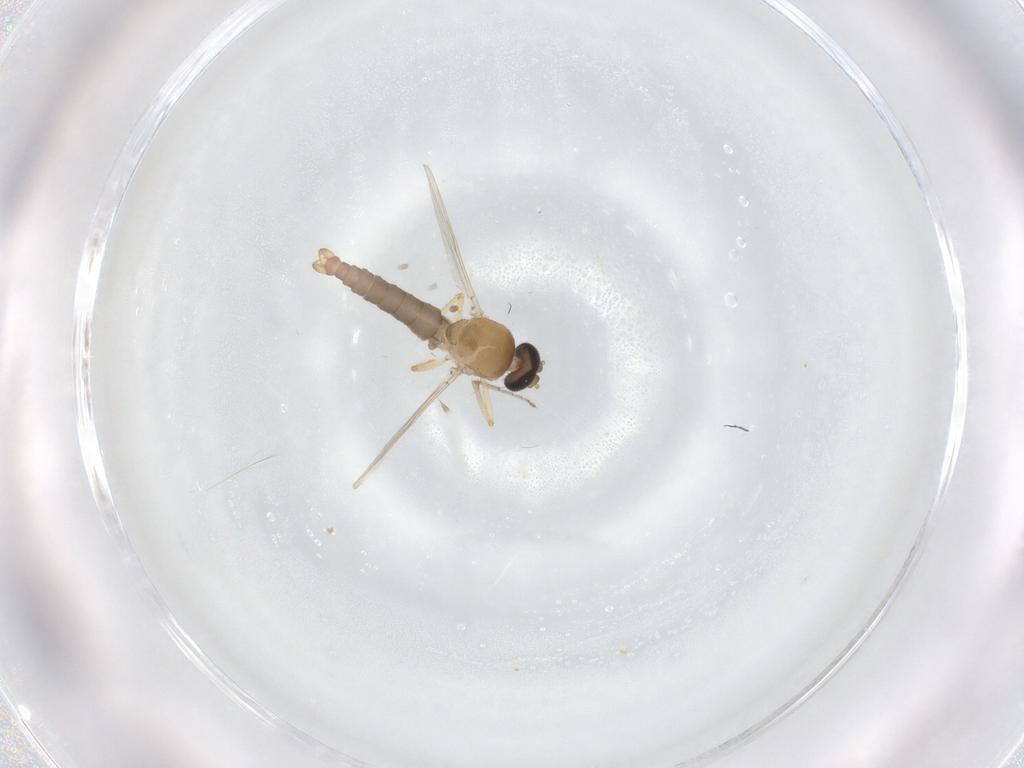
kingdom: Animalia
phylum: Arthropoda
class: Insecta
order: Diptera
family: Ceratopogonidae
